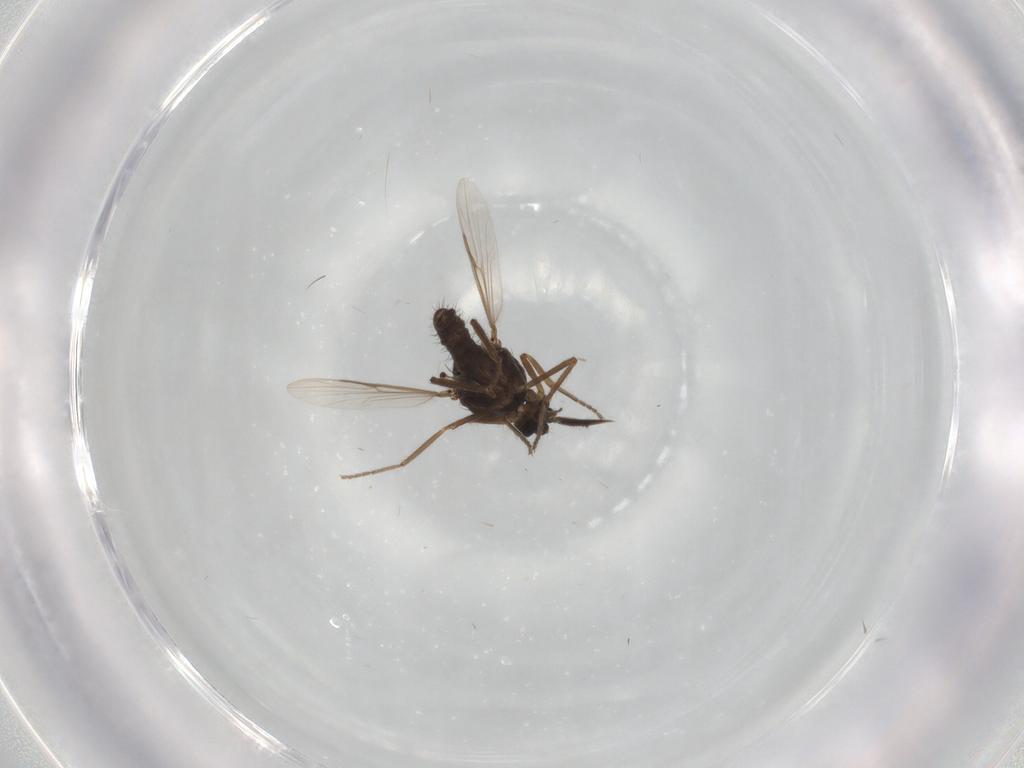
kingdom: Animalia
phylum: Arthropoda
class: Insecta
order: Diptera
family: Ceratopogonidae
